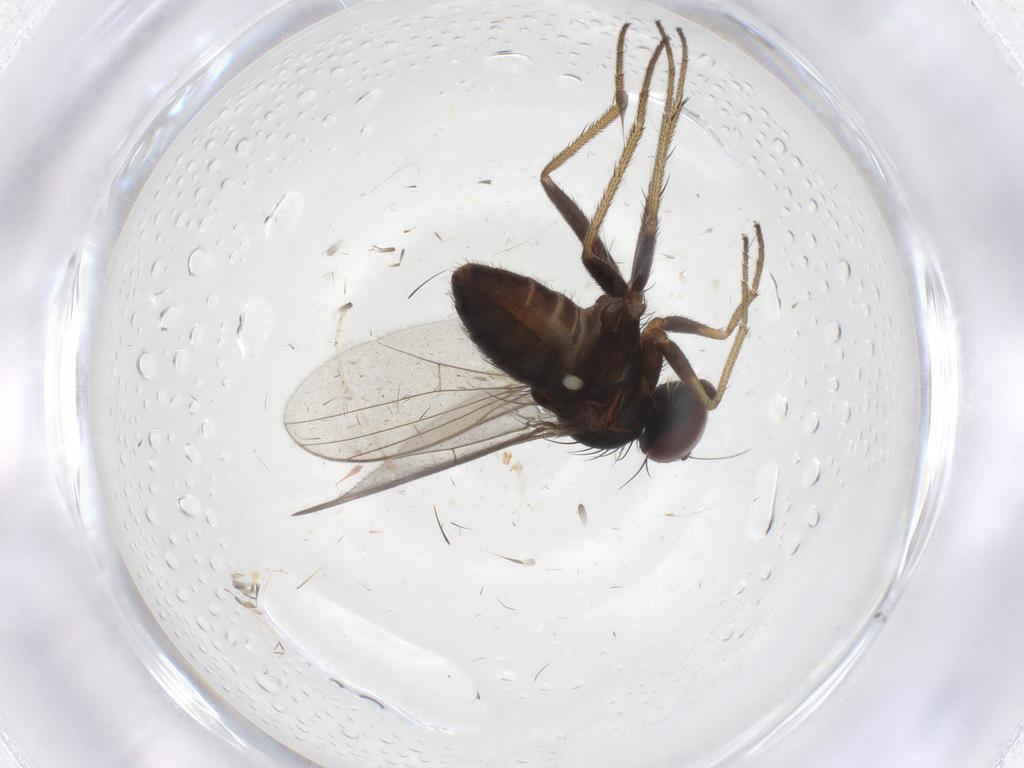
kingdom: Animalia
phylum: Arthropoda
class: Insecta
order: Diptera
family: Dolichopodidae
